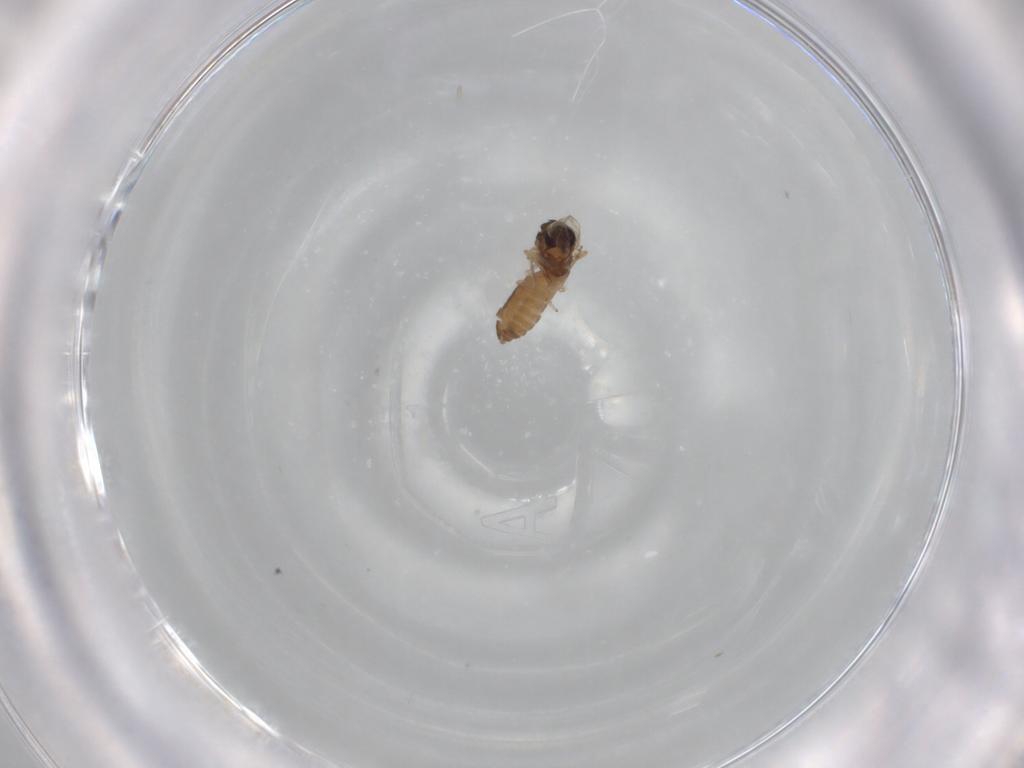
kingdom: Animalia
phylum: Arthropoda
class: Insecta
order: Diptera
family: Ceratopogonidae
